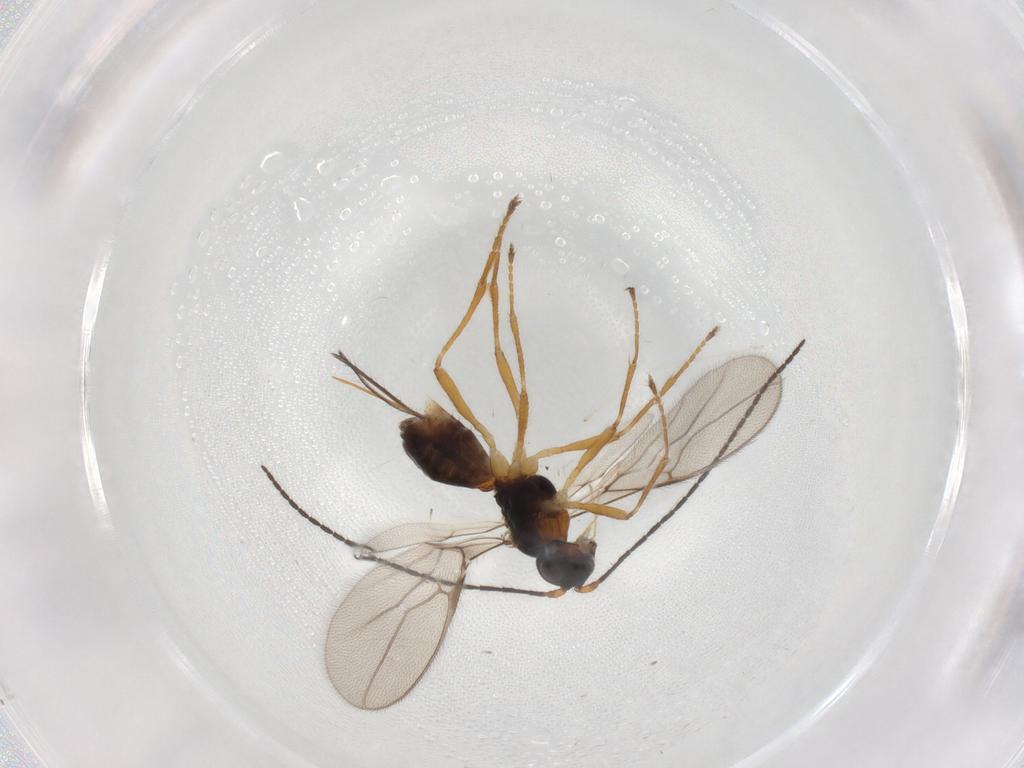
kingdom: Animalia
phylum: Arthropoda
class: Insecta
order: Hymenoptera
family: Braconidae
